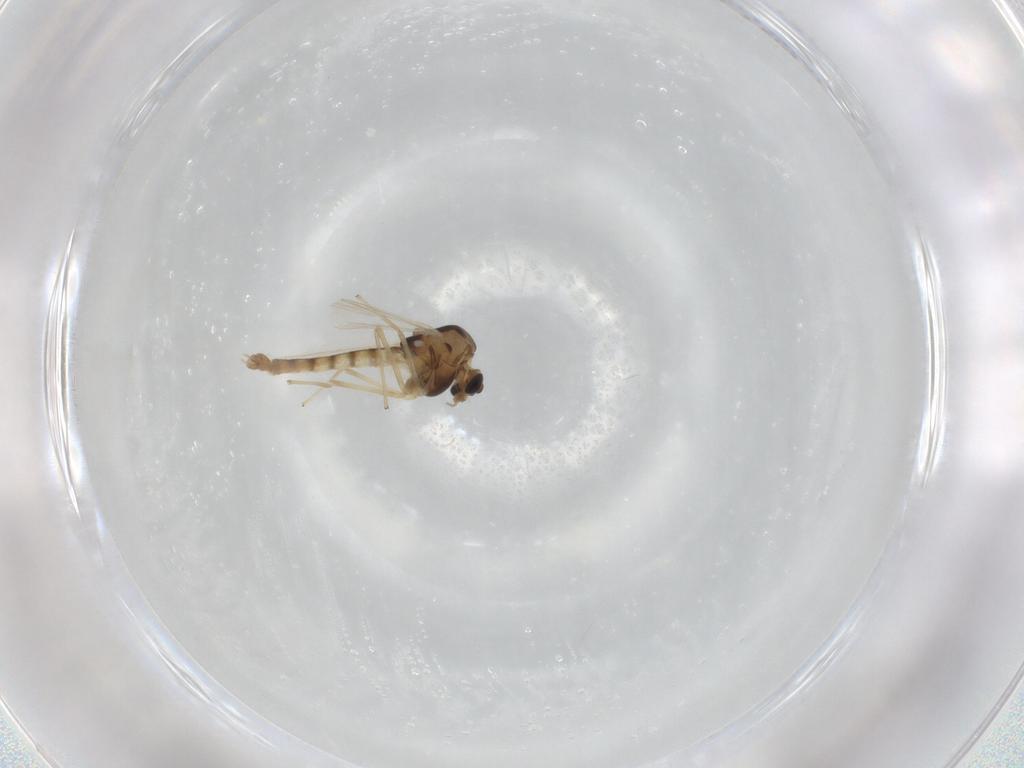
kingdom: Animalia
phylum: Arthropoda
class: Insecta
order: Diptera
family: Chironomidae
